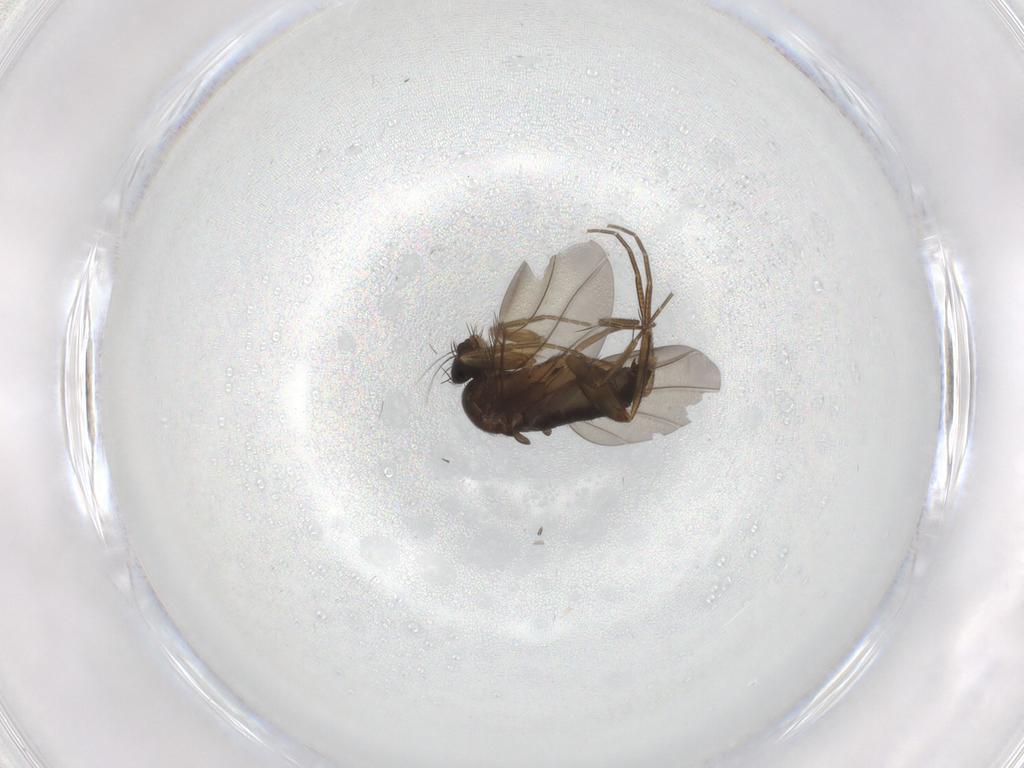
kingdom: Animalia
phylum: Arthropoda
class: Insecta
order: Diptera
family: Phoridae
